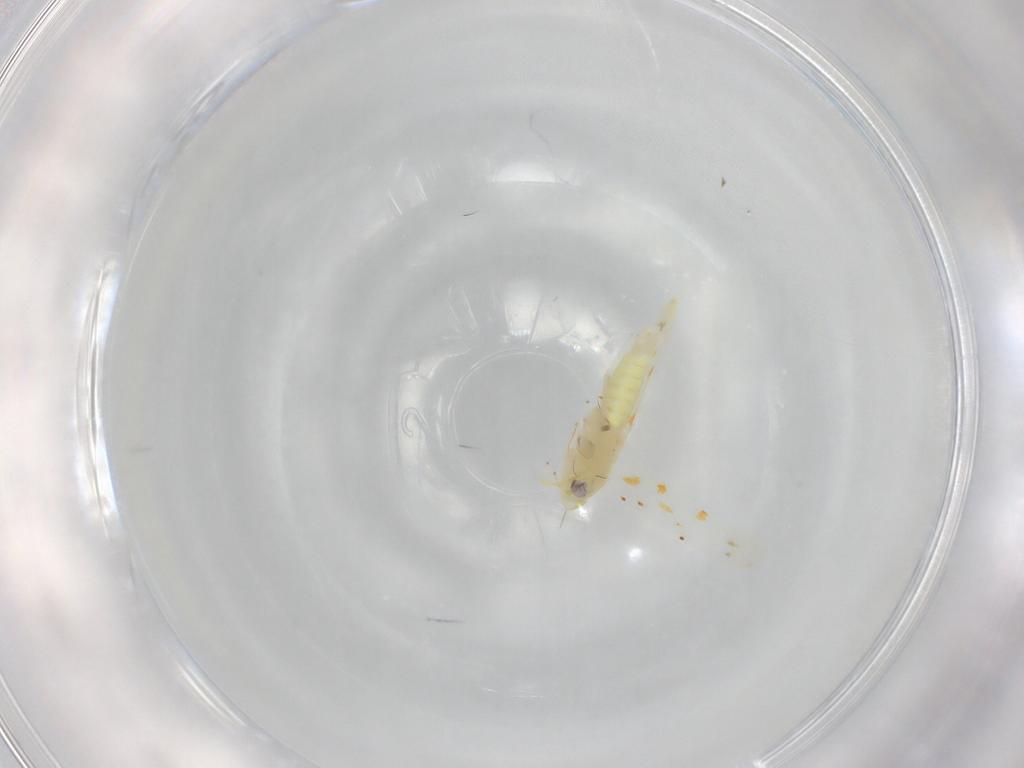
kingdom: Animalia
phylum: Arthropoda
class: Insecta
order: Hemiptera
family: Cicadellidae
